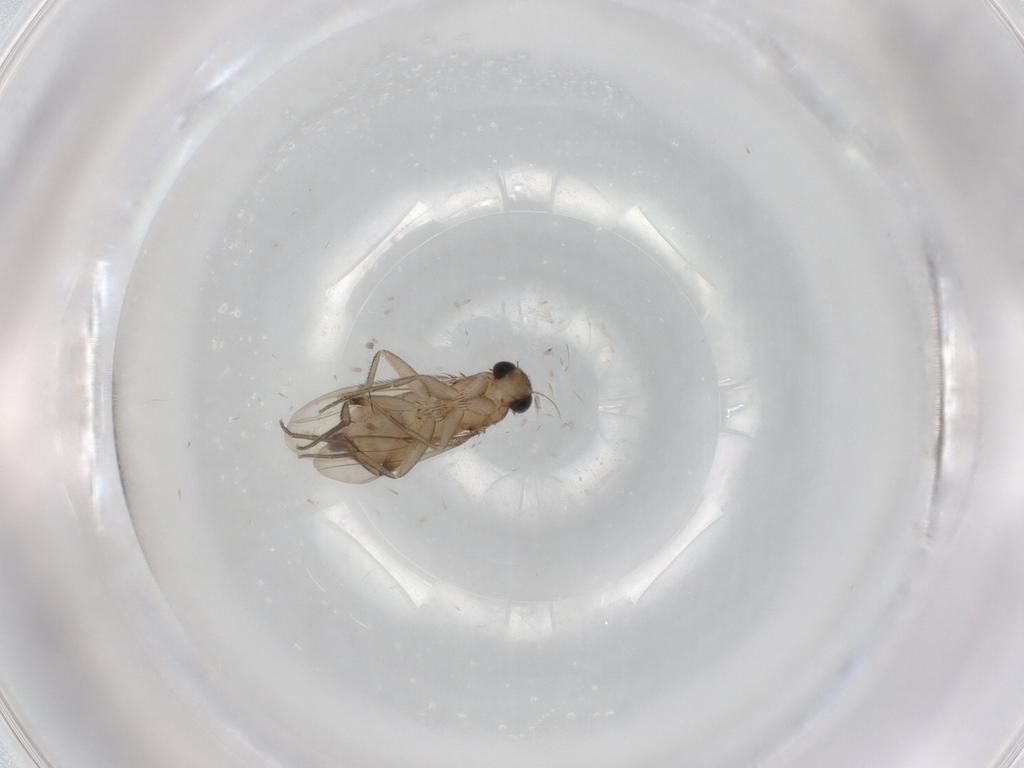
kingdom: Animalia
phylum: Arthropoda
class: Insecta
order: Diptera
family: Phoridae
